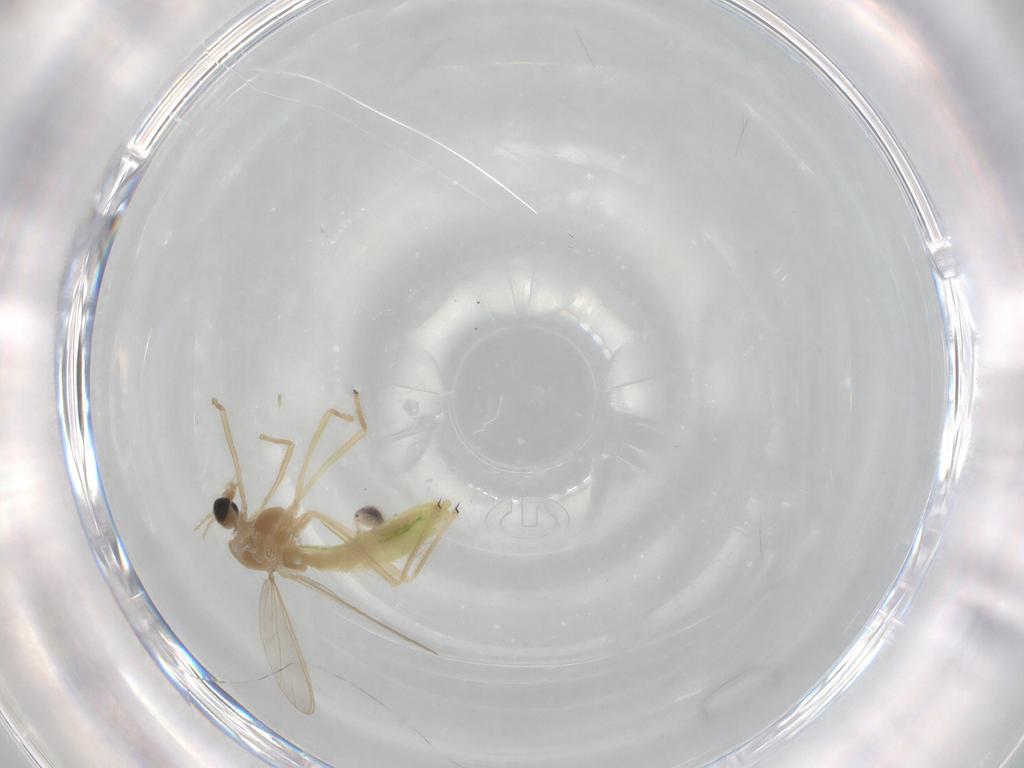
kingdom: Animalia
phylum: Arthropoda
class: Insecta
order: Diptera
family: Chironomidae
